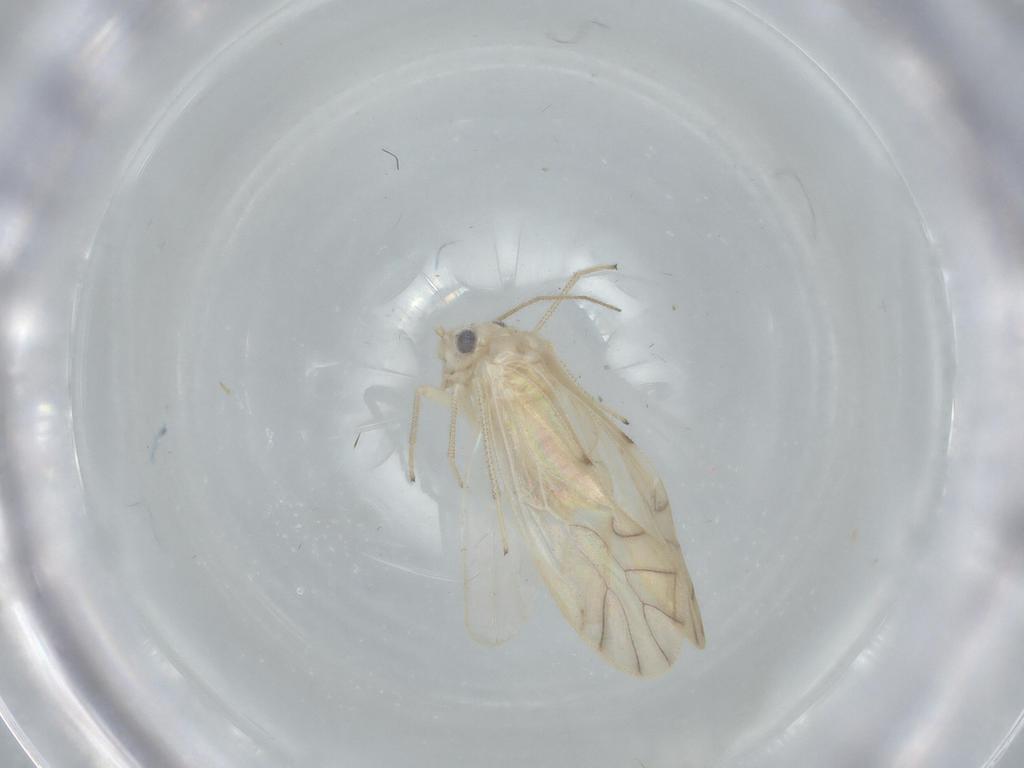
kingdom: Animalia
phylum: Arthropoda
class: Insecta
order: Psocodea
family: Caeciliusidae
